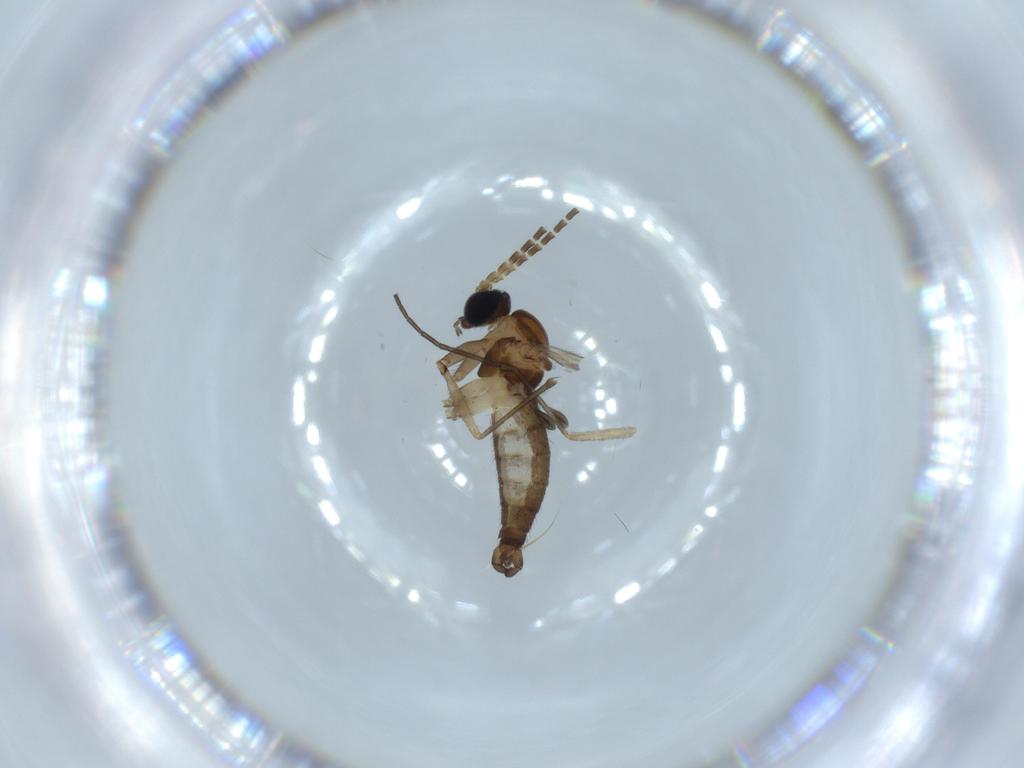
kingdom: Animalia
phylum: Arthropoda
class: Insecta
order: Diptera
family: Sciaridae
